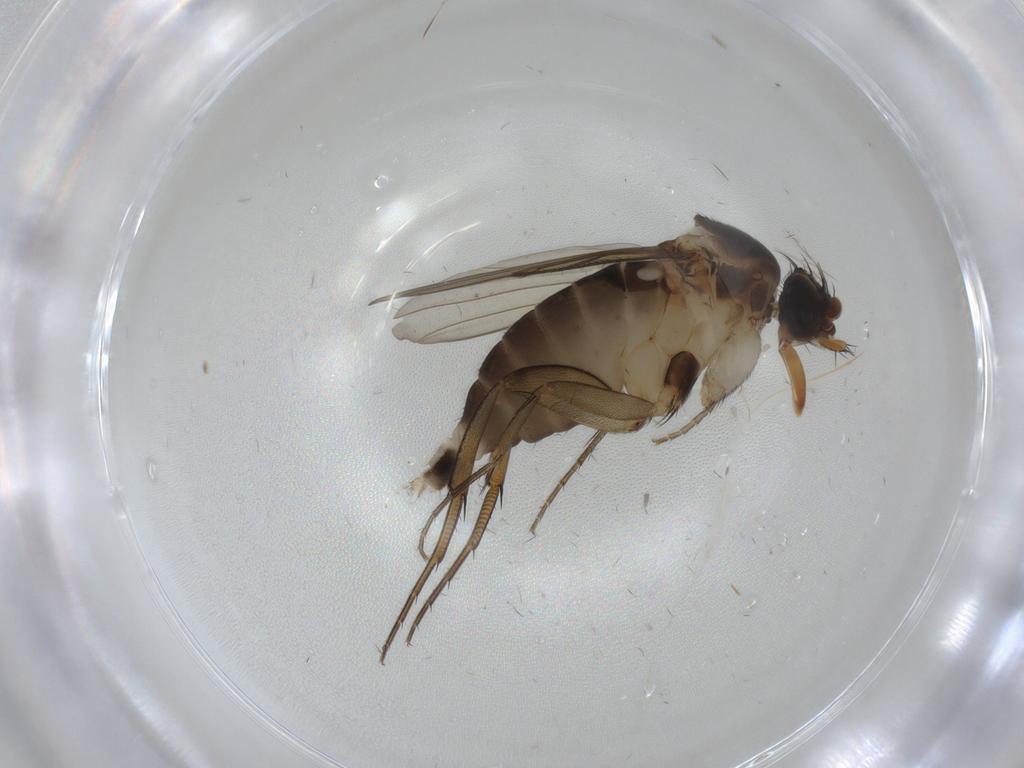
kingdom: Animalia
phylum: Arthropoda
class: Insecta
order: Diptera
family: Phoridae
